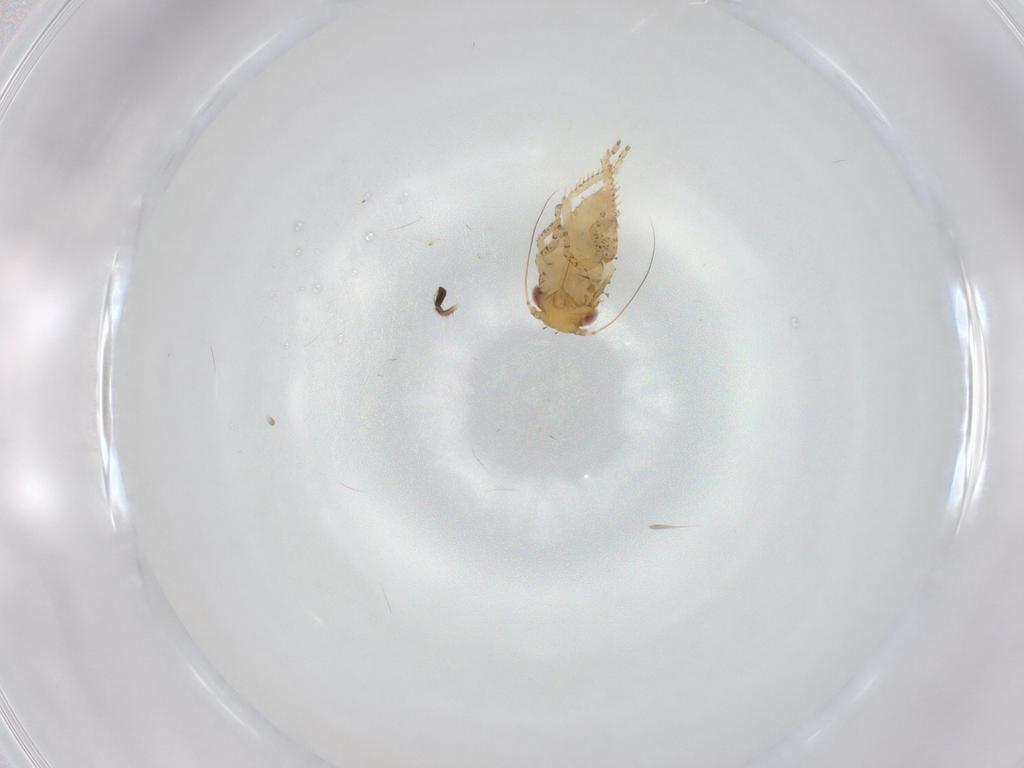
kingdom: Animalia
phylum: Arthropoda
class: Insecta
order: Hemiptera
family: Cicadellidae
